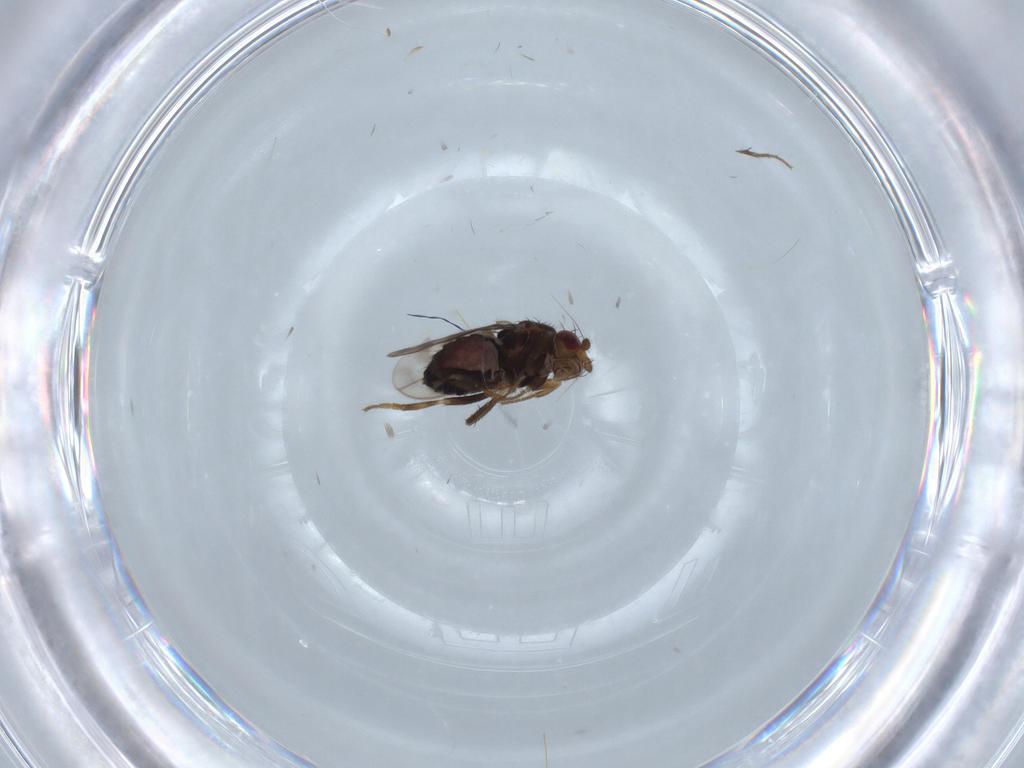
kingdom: Animalia
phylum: Arthropoda
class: Insecta
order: Diptera
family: Sphaeroceridae
